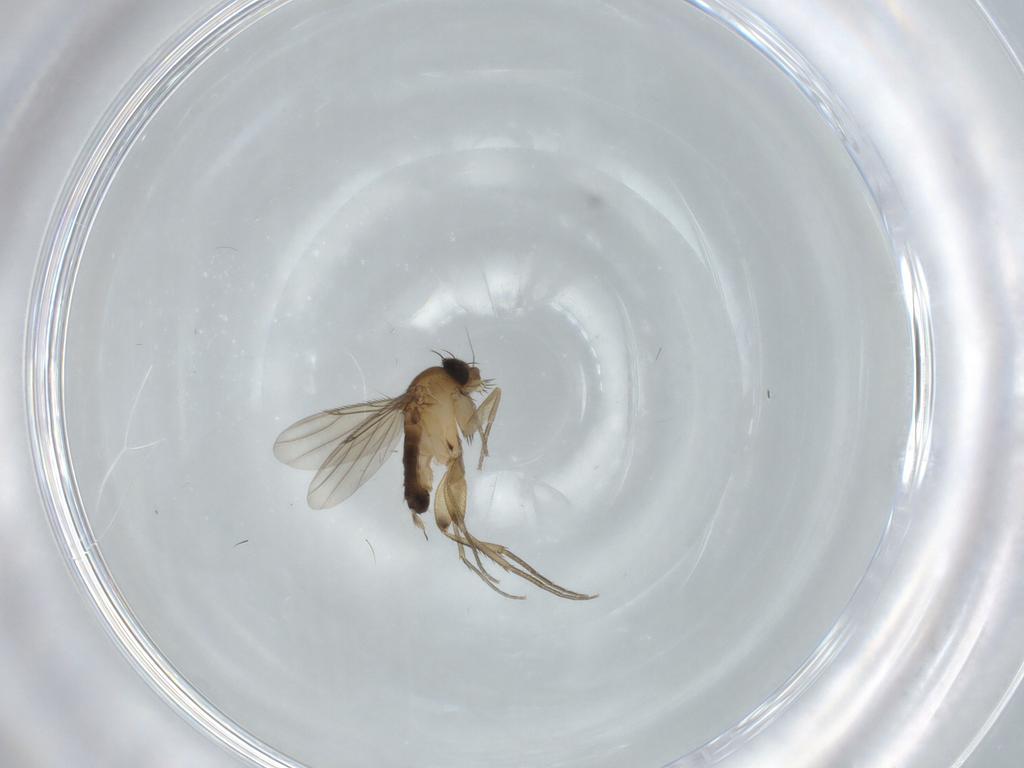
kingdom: Animalia
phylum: Arthropoda
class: Insecta
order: Diptera
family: Phoridae
